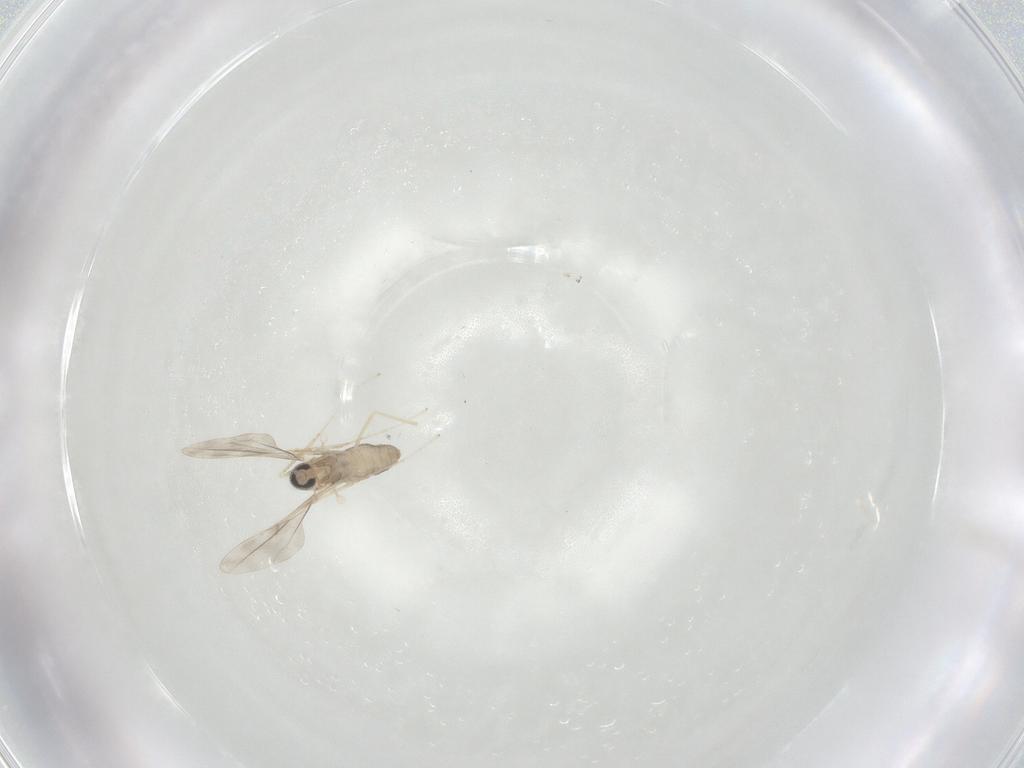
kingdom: Animalia
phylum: Arthropoda
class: Insecta
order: Diptera
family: Cecidomyiidae
